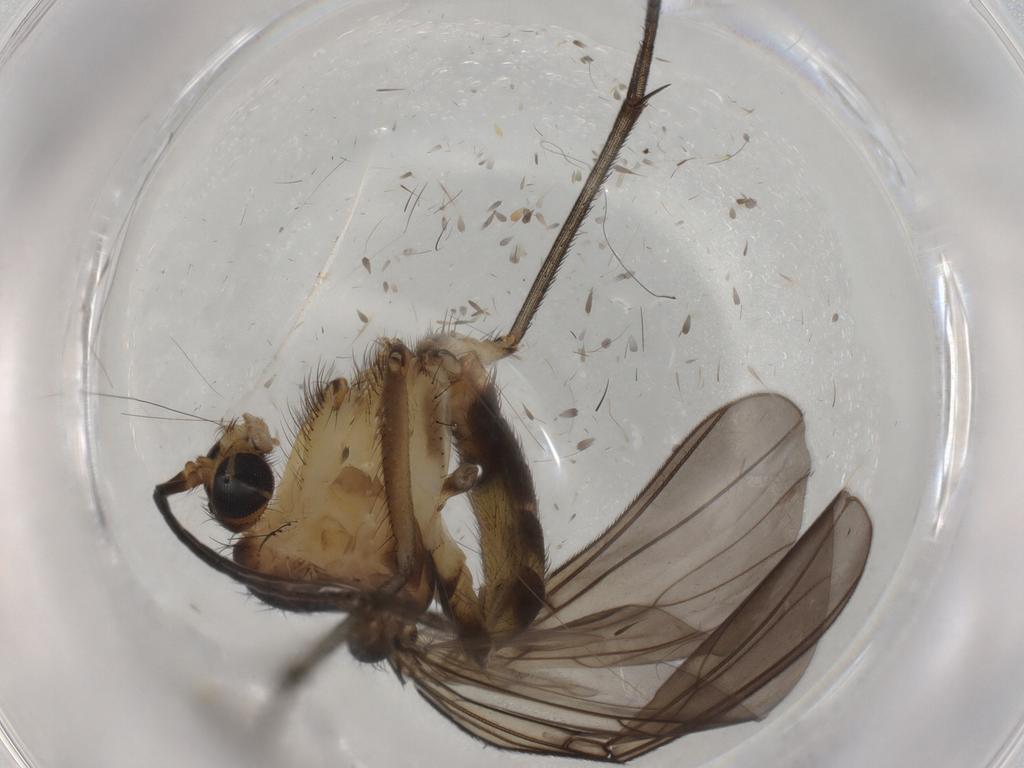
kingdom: Animalia
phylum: Arthropoda
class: Insecta
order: Diptera
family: Mycetophilidae
